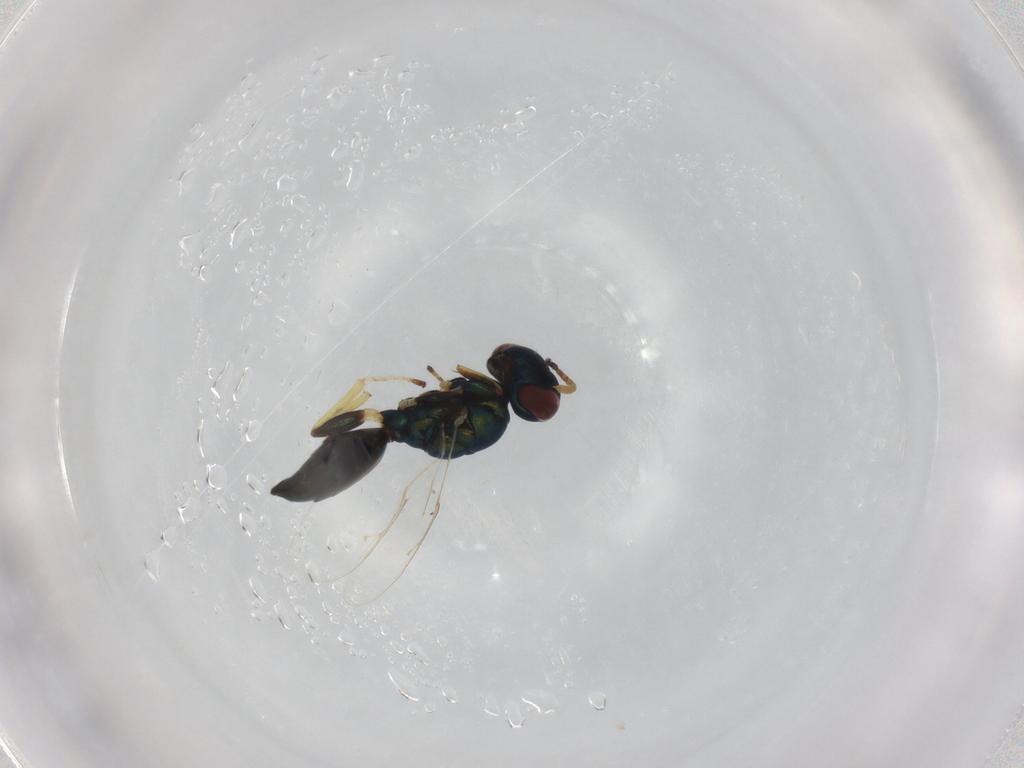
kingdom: Animalia
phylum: Arthropoda
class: Insecta
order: Hymenoptera
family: Pteromalidae
